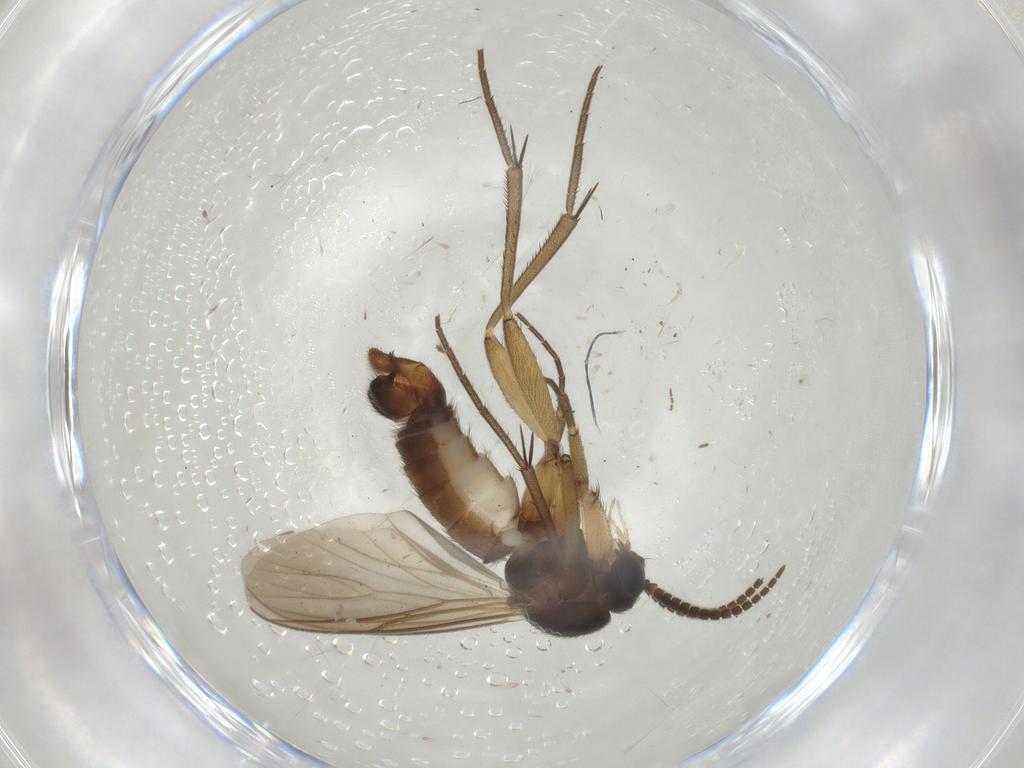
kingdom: Animalia
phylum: Arthropoda
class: Insecta
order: Diptera
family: Mycetophilidae
